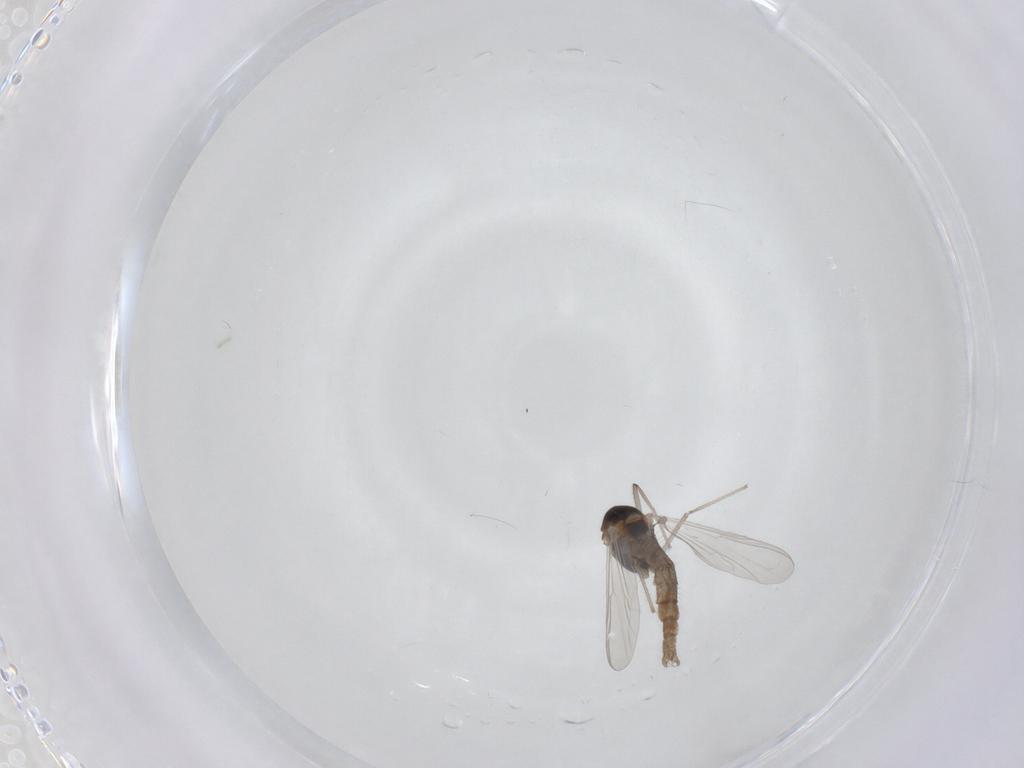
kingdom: Animalia
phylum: Arthropoda
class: Insecta
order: Diptera
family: Chironomidae
